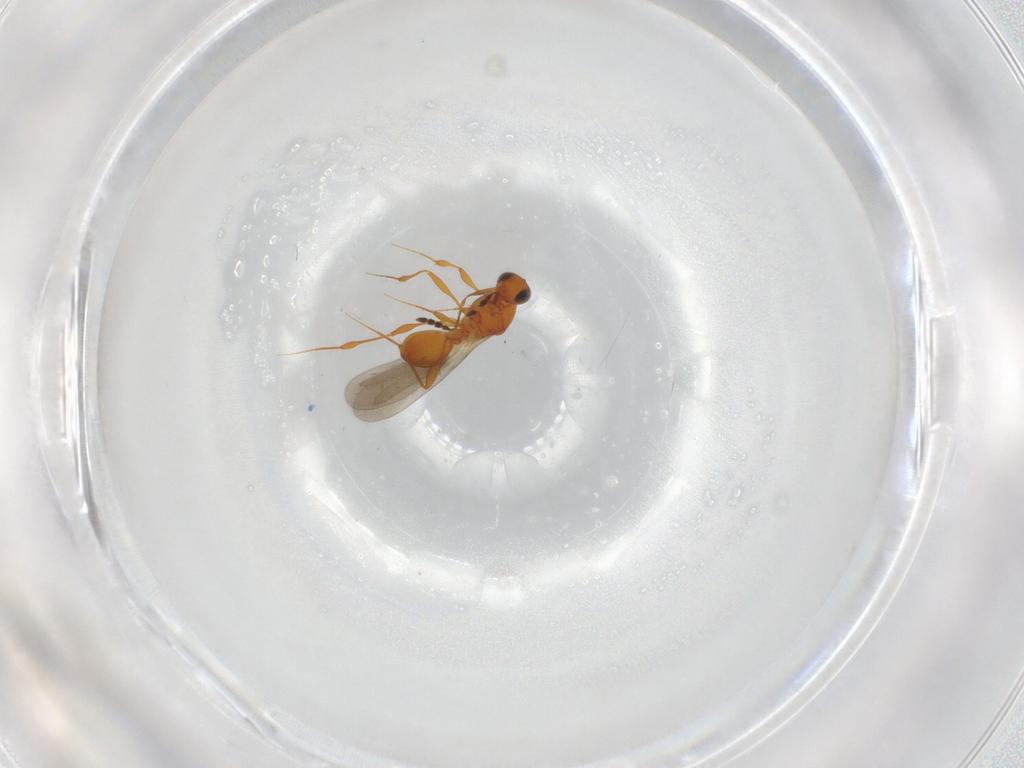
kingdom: Animalia
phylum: Arthropoda
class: Insecta
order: Hymenoptera
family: Platygastridae
